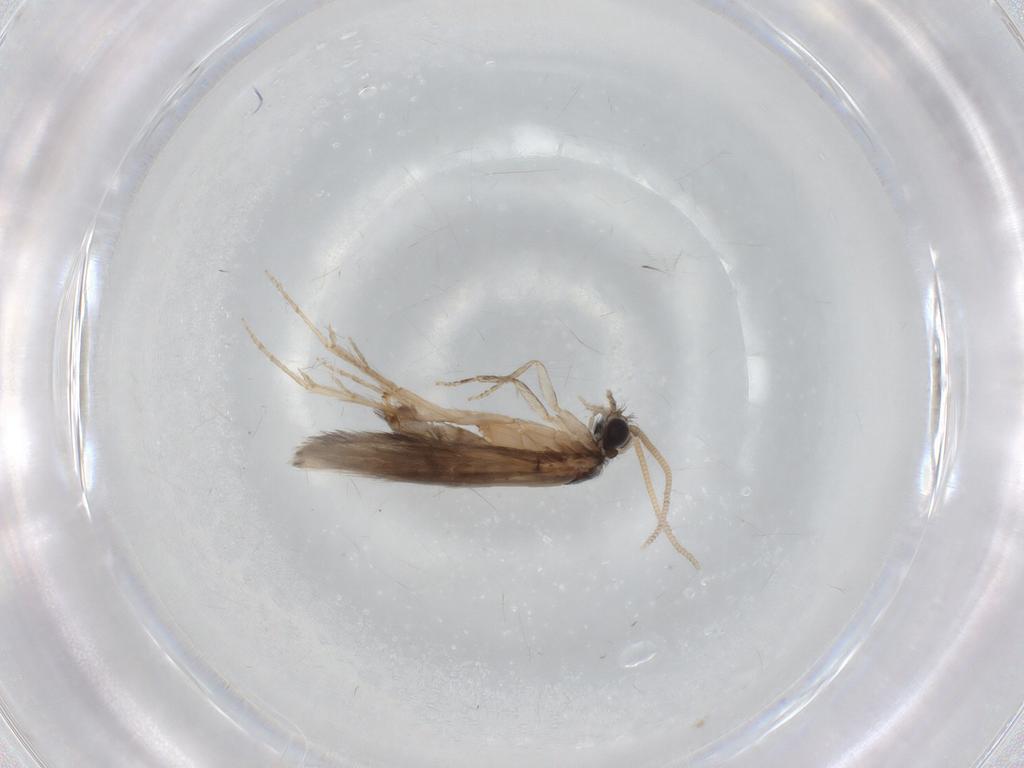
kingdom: Animalia
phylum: Arthropoda
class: Insecta
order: Trichoptera
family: Hydroptilidae
